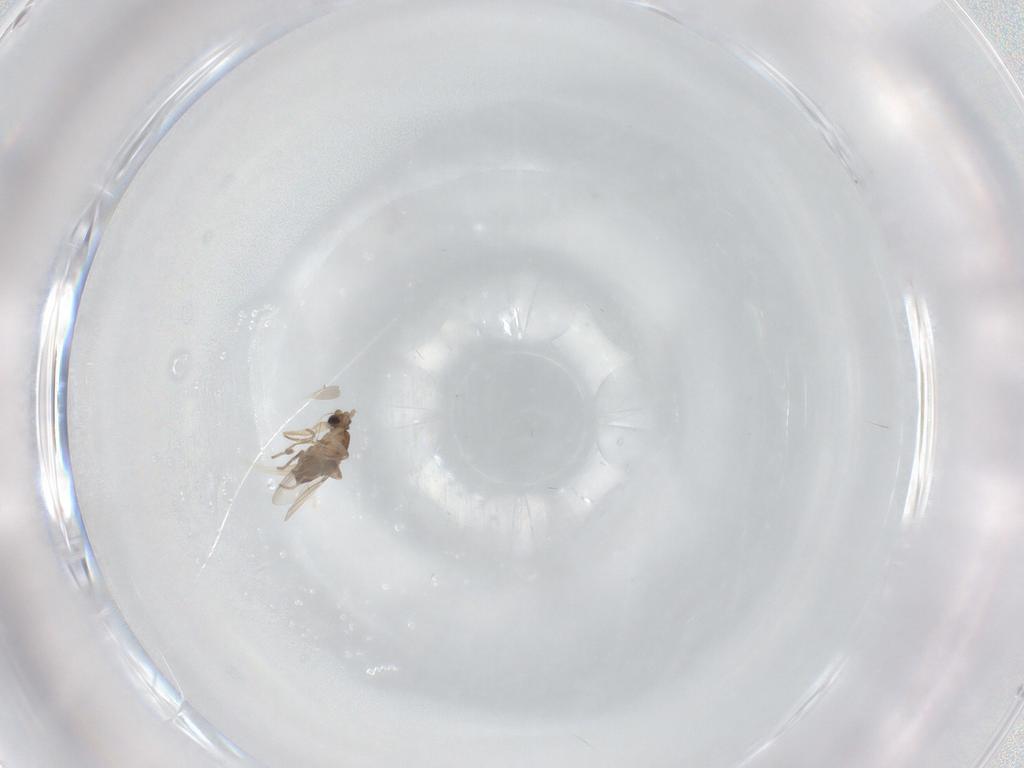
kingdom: Animalia
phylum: Arthropoda
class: Insecta
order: Diptera
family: Phoridae
